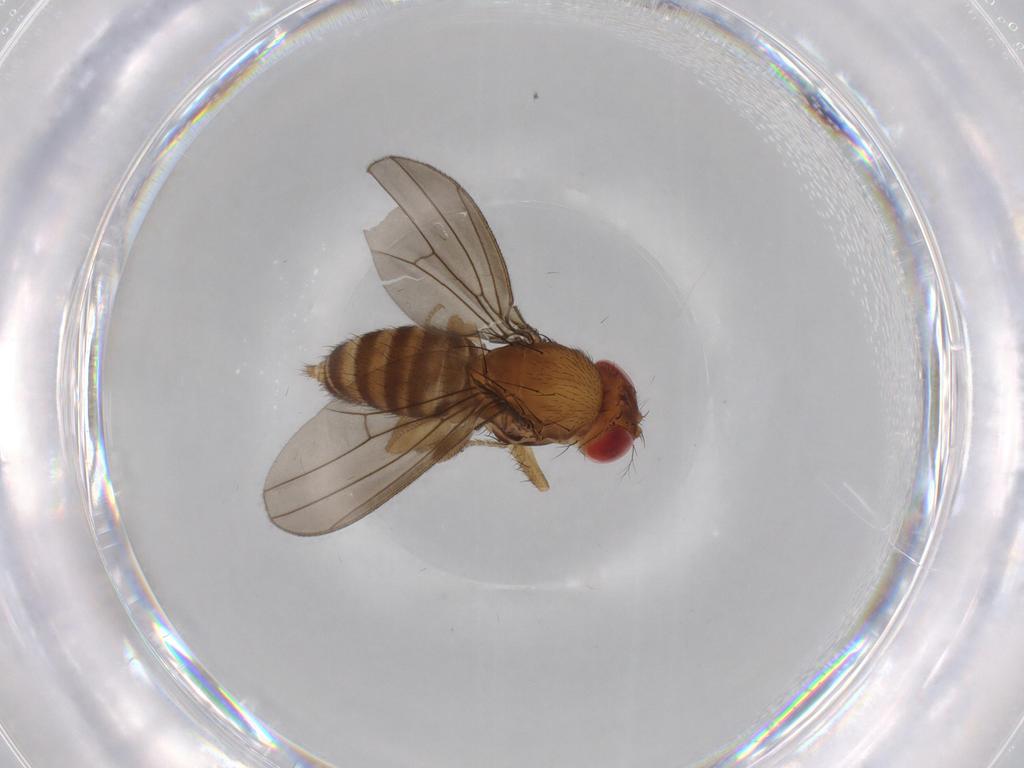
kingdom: Animalia
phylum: Arthropoda
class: Insecta
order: Diptera
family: Drosophilidae
